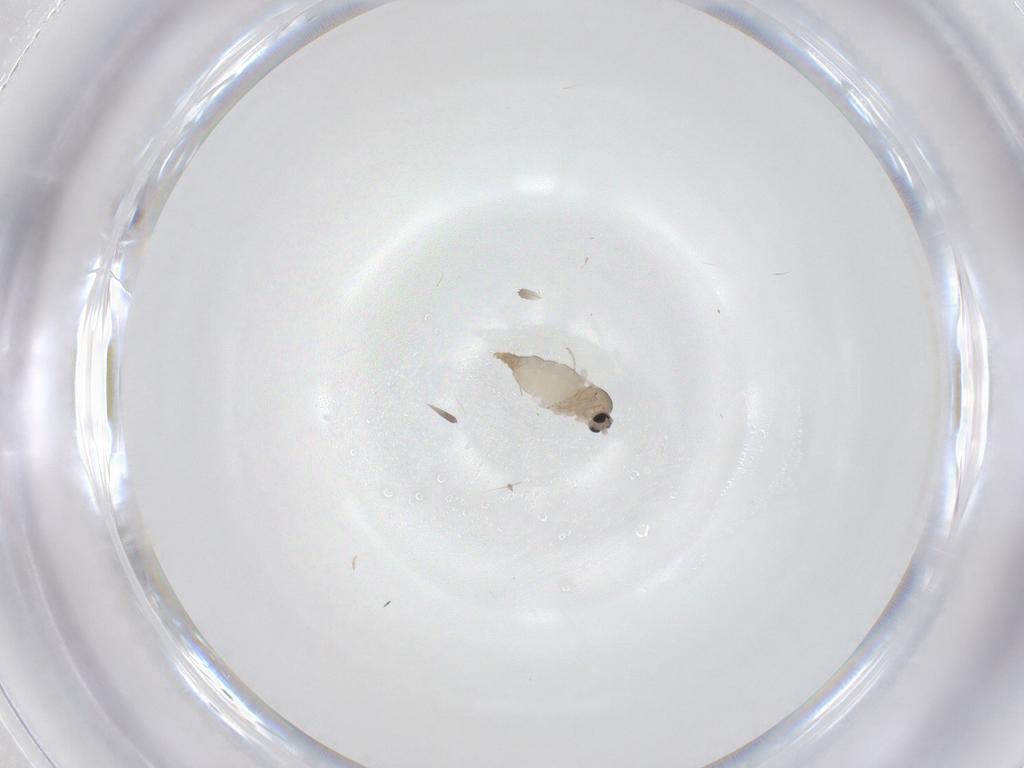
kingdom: Animalia
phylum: Arthropoda
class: Insecta
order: Diptera
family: Cecidomyiidae
